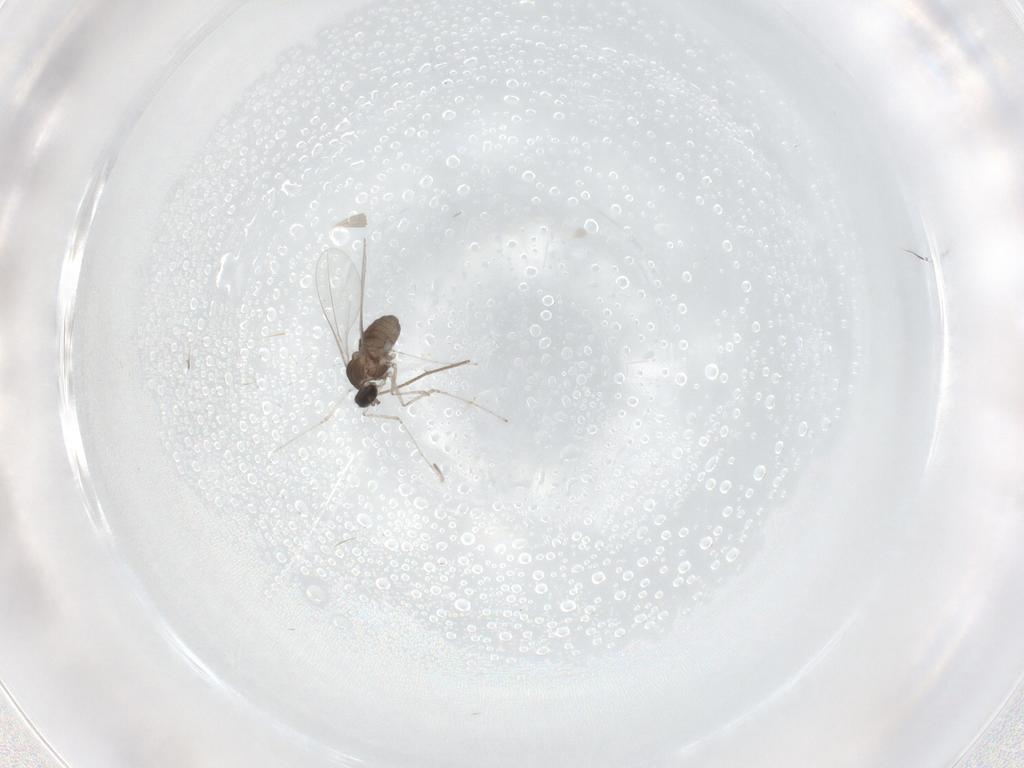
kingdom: Animalia
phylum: Arthropoda
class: Insecta
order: Diptera
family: Cecidomyiidae
